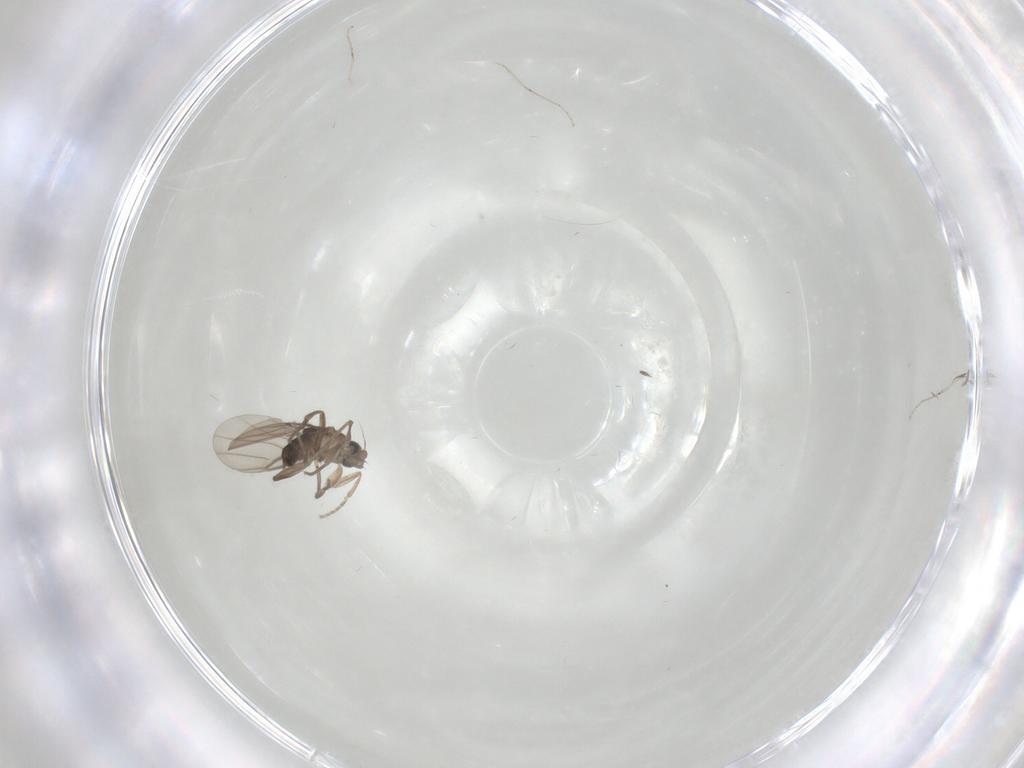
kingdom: Animalia
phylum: Arthropoda
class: Insecta
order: Diptera
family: Cecidomyiidae
